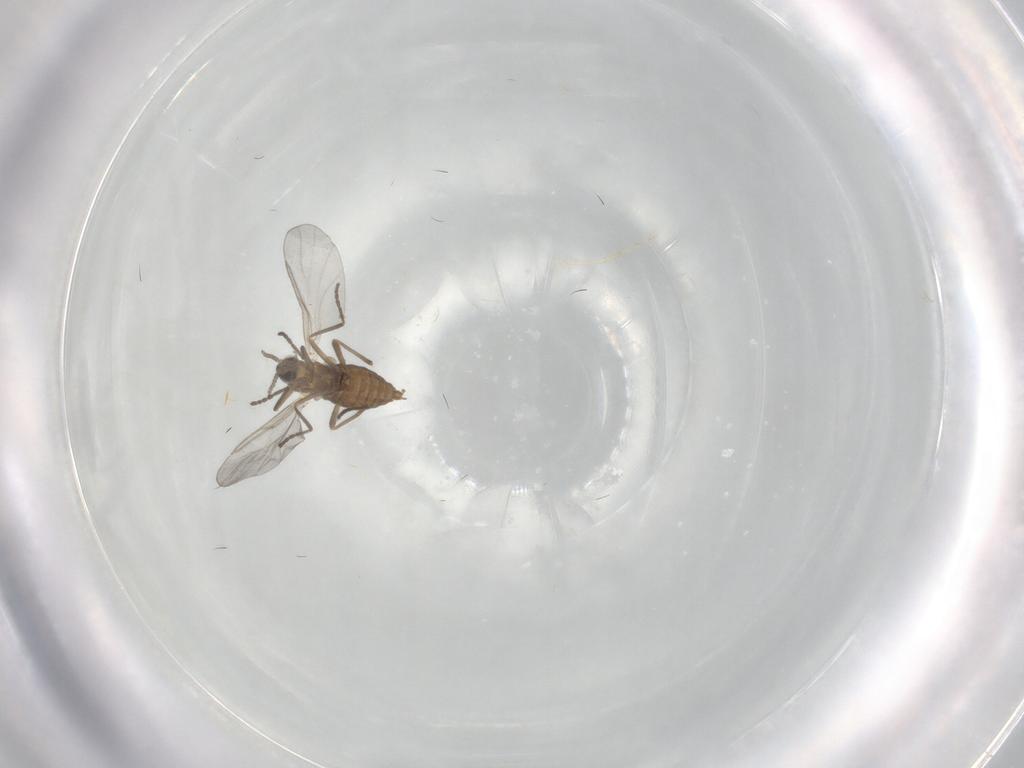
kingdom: Animalia
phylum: Arthropoda
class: Insecta
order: Diptera
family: Cecidomyiidae
